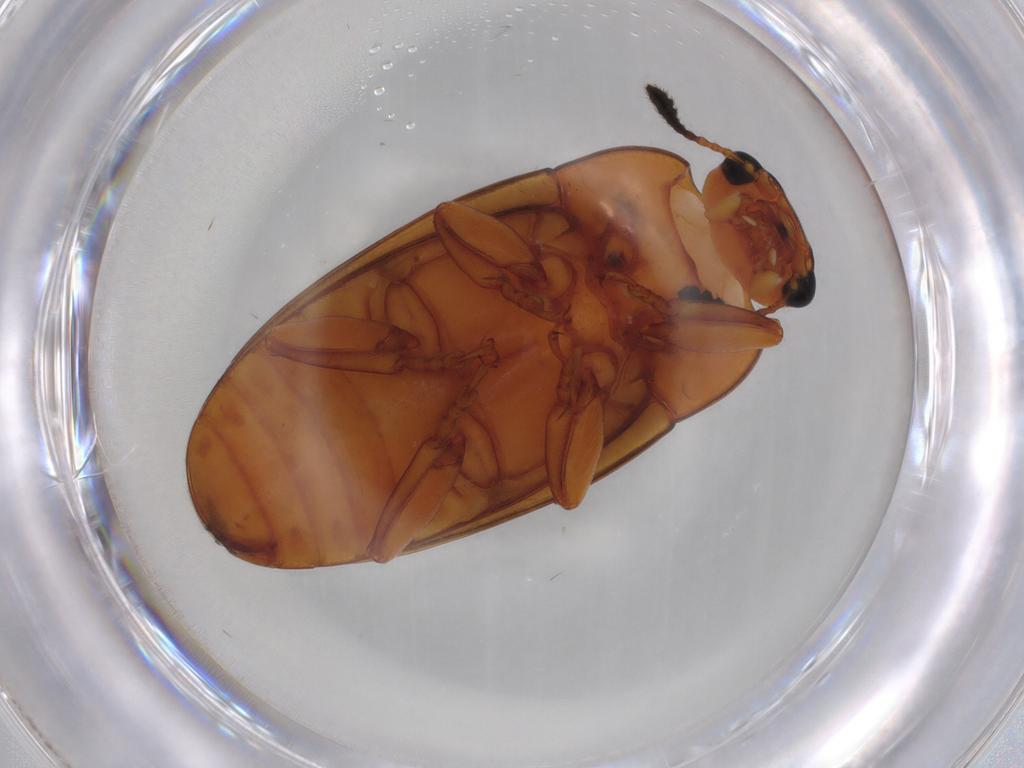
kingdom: Animalia
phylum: Arthropoda
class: Insecta
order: Coleoptera
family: Erotylidae
